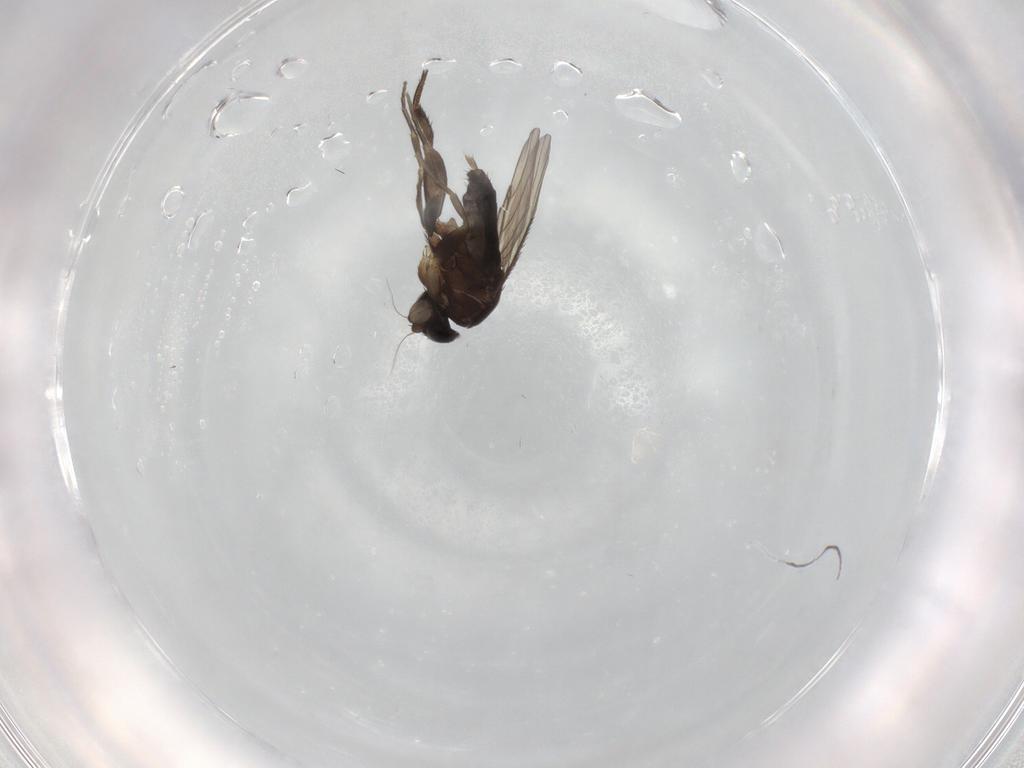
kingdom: Animalia
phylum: Arthropoda
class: Insecta
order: Diptera
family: Phoridae
